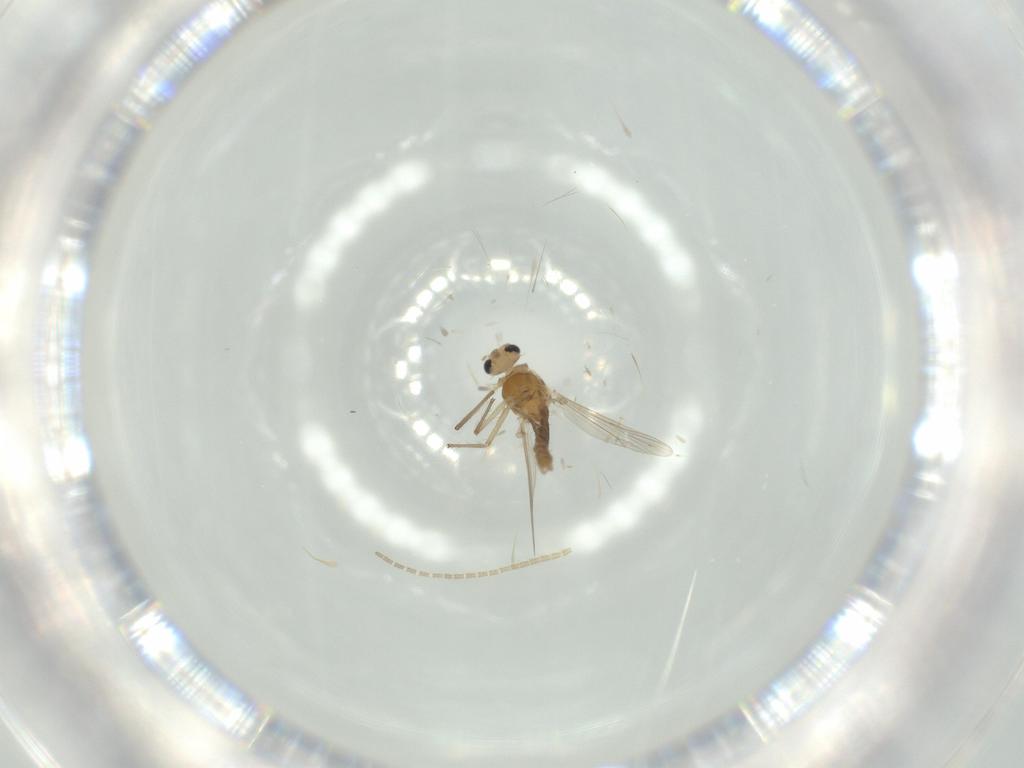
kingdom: Animalia
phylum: Arthropoda
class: Insecta
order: Diptera
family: Chironomidae
